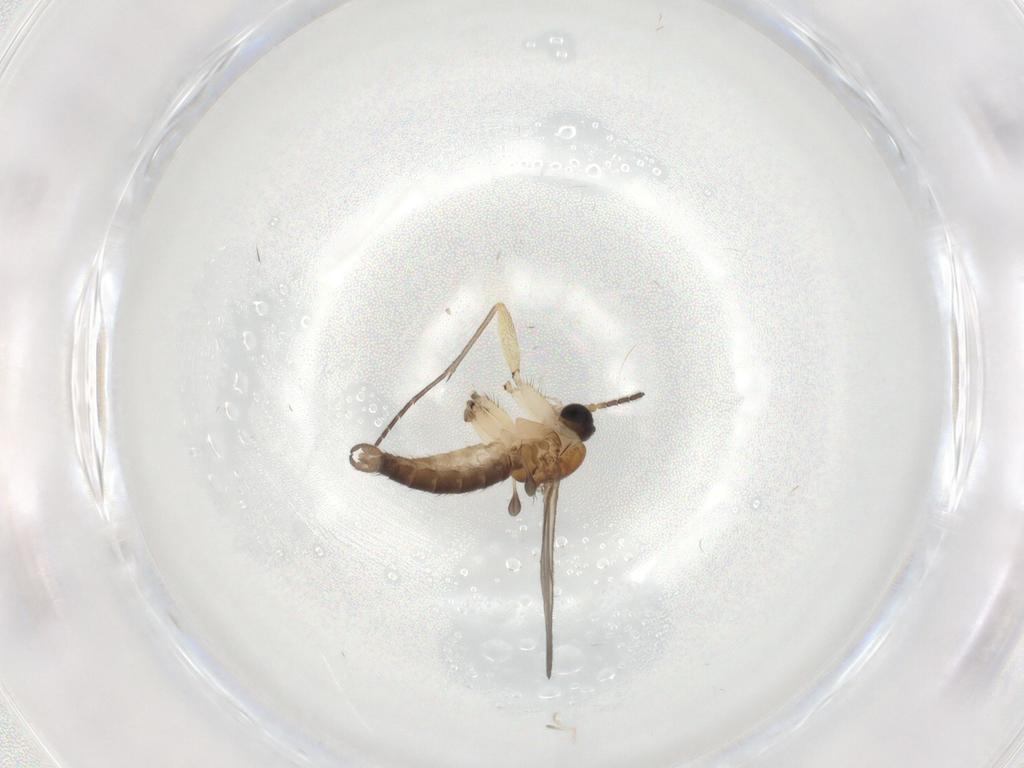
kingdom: Animalia
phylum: Arthropoda
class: Insecta
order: Diptera
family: Sciaridae
